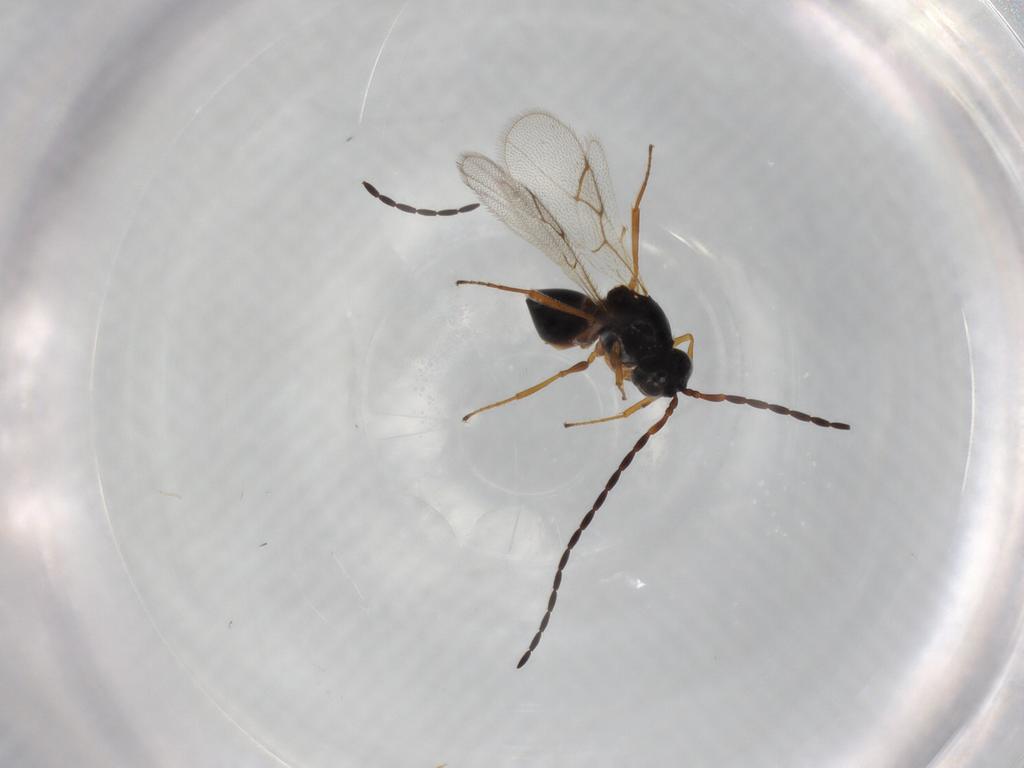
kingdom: Animalia
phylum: Arthropoda
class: Insecta
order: Hymenoptera
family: Figitidae
